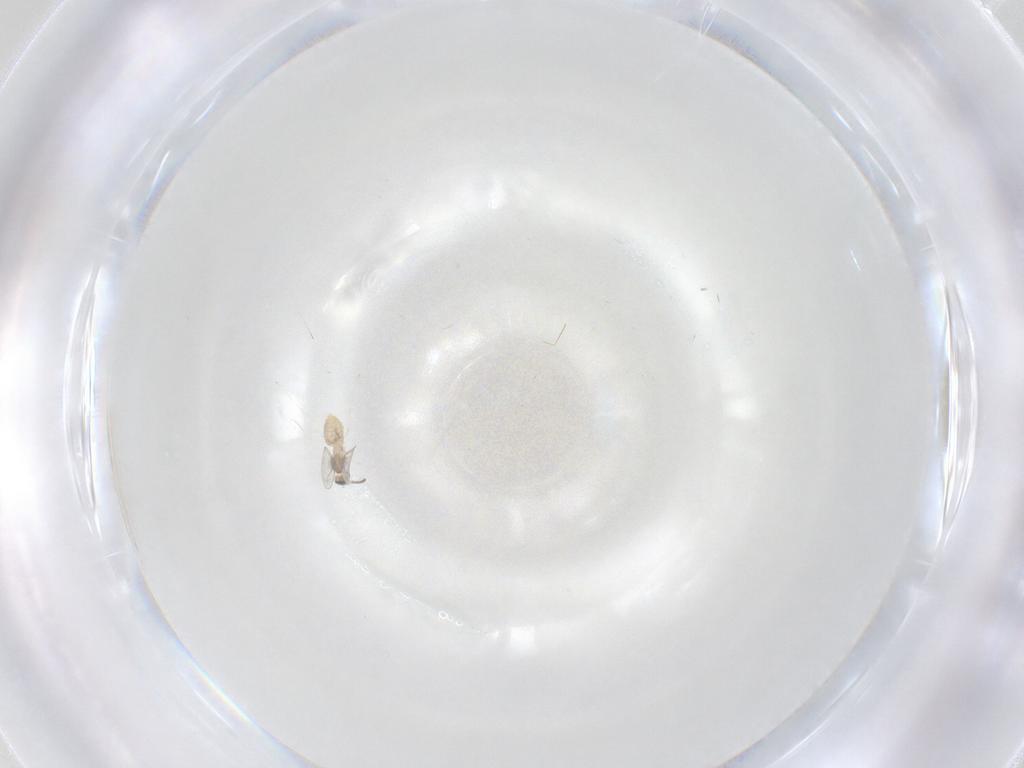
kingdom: Animalia
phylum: Arthropoda
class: Insecta
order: Diptera
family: Cecidomyiidae
